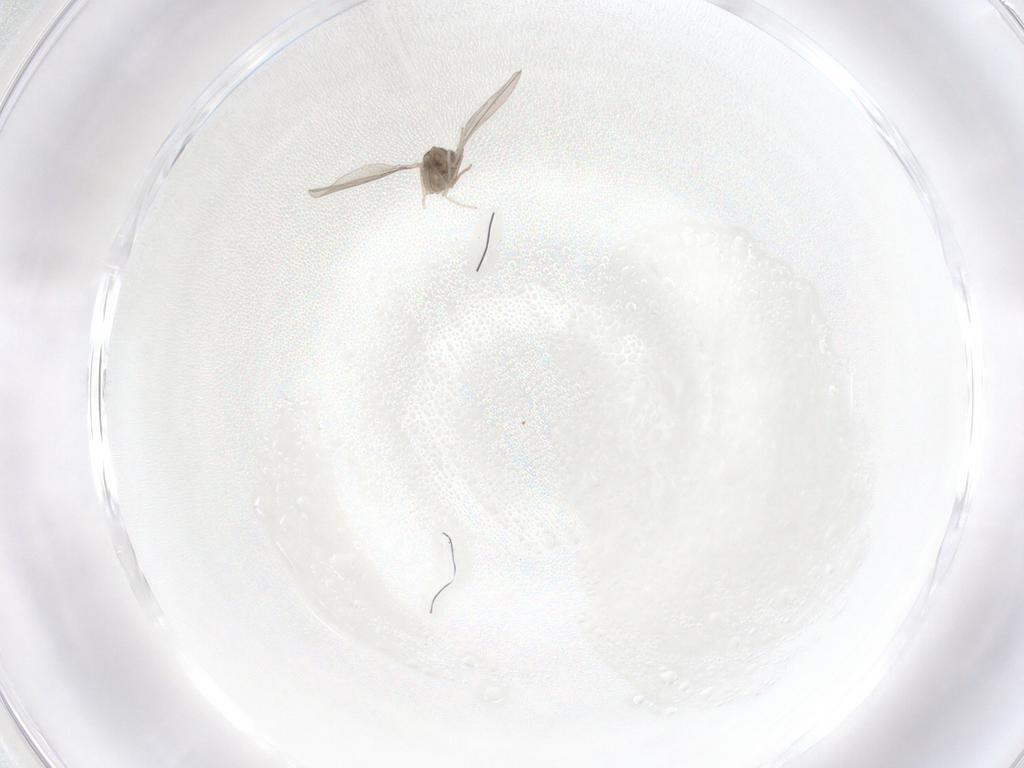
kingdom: Animalia
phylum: Arthropoda
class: Insecta
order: Diptera
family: Cecidomyiidae
